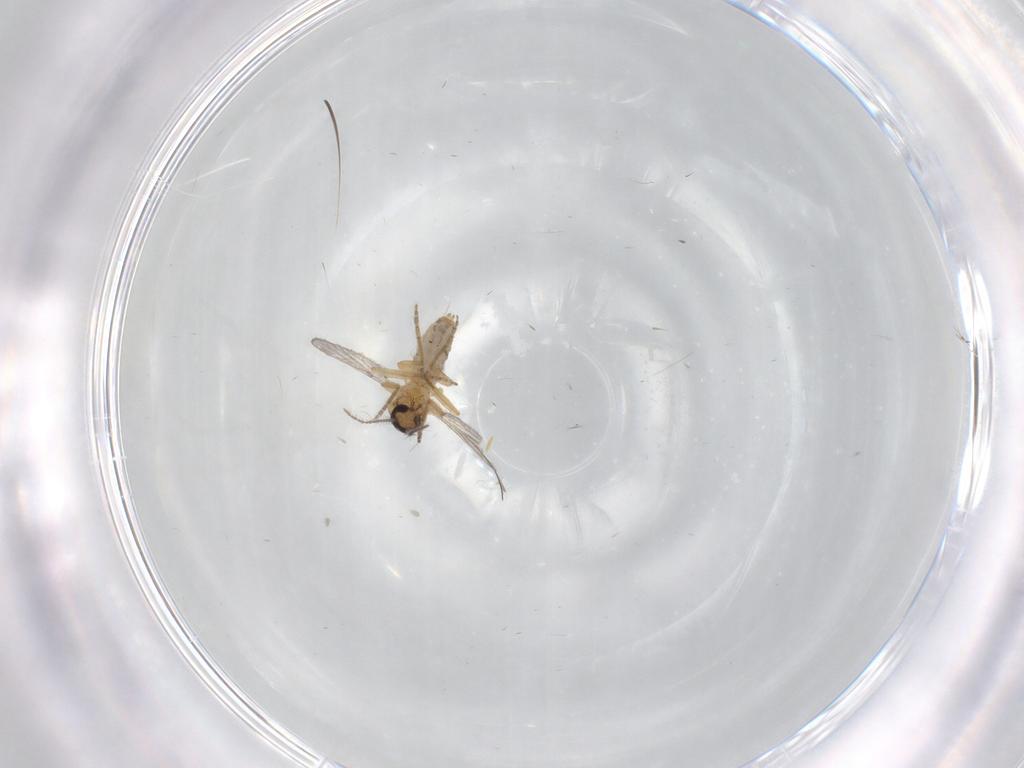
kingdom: Animalia
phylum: Arthropoda
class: Insecta
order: Diptera
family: Ceratopogonidae
